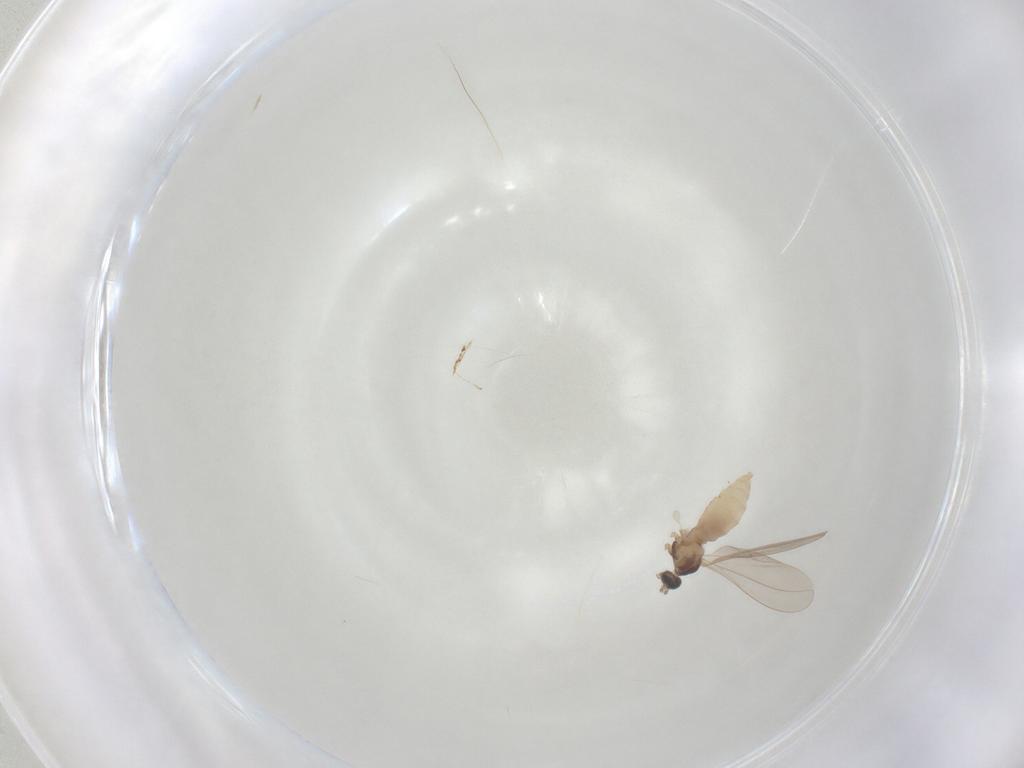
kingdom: Animalia
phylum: Arthropoda
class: Insecta
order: Diptera
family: Cecidomyiidae
